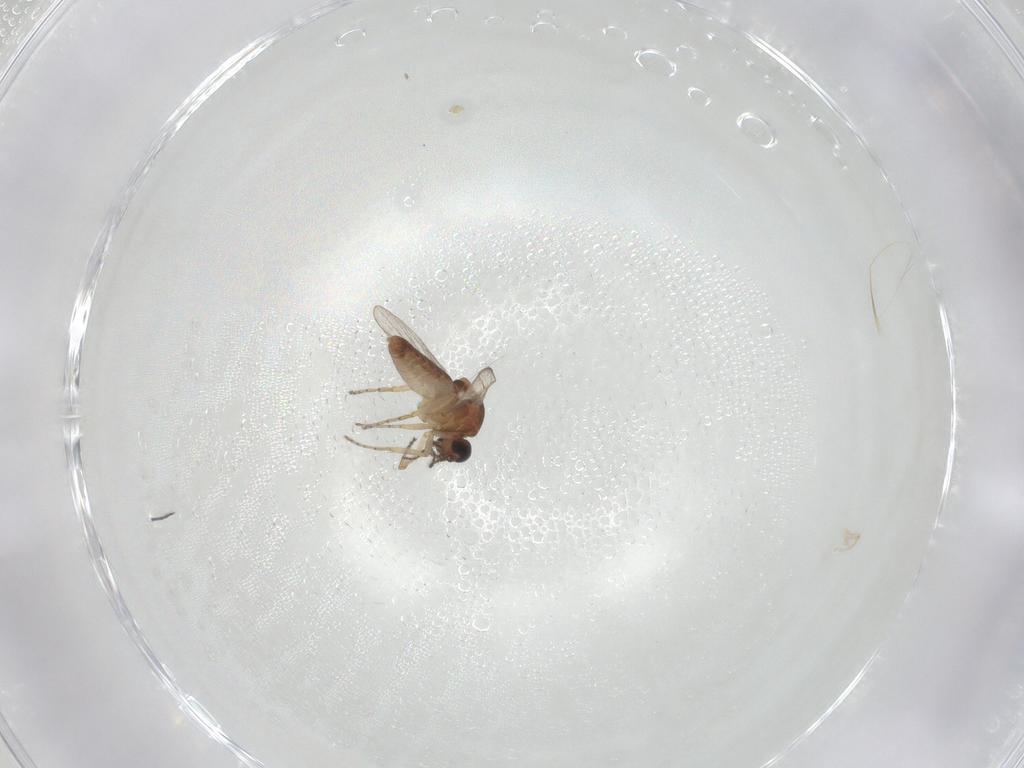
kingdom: Animalia
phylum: Arthropoda
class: Insecta
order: Diptera
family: Ceratopogonidae
